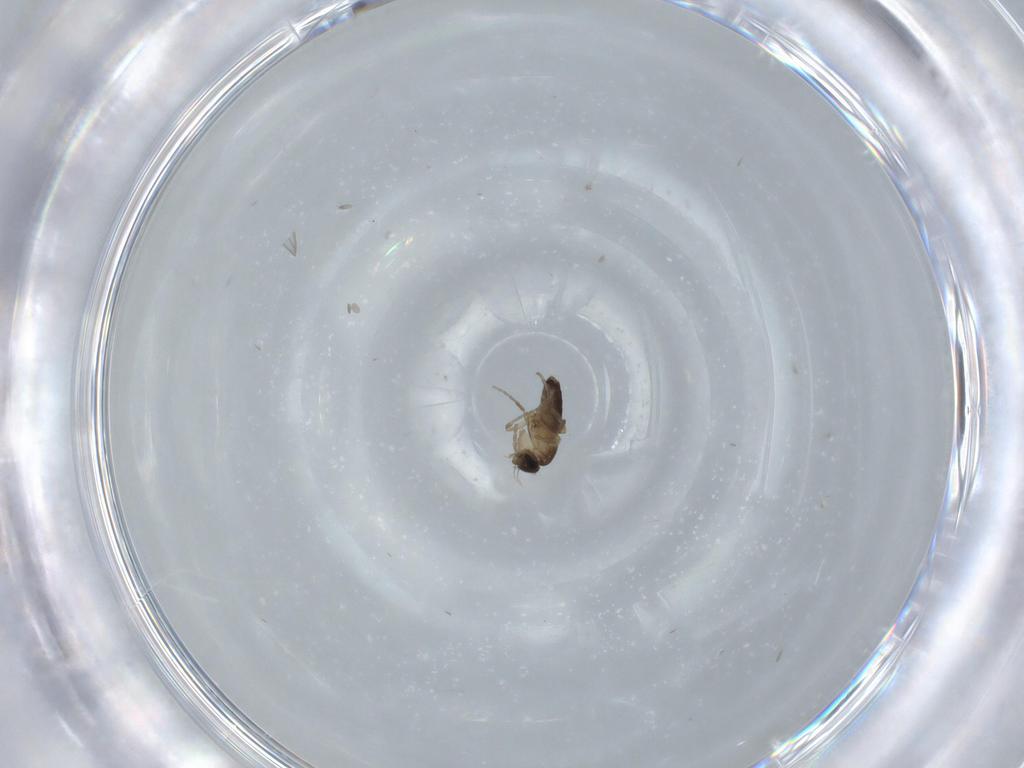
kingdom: Animalia
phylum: Arthropoda
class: Insecta
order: Diptera
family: Phoridae
